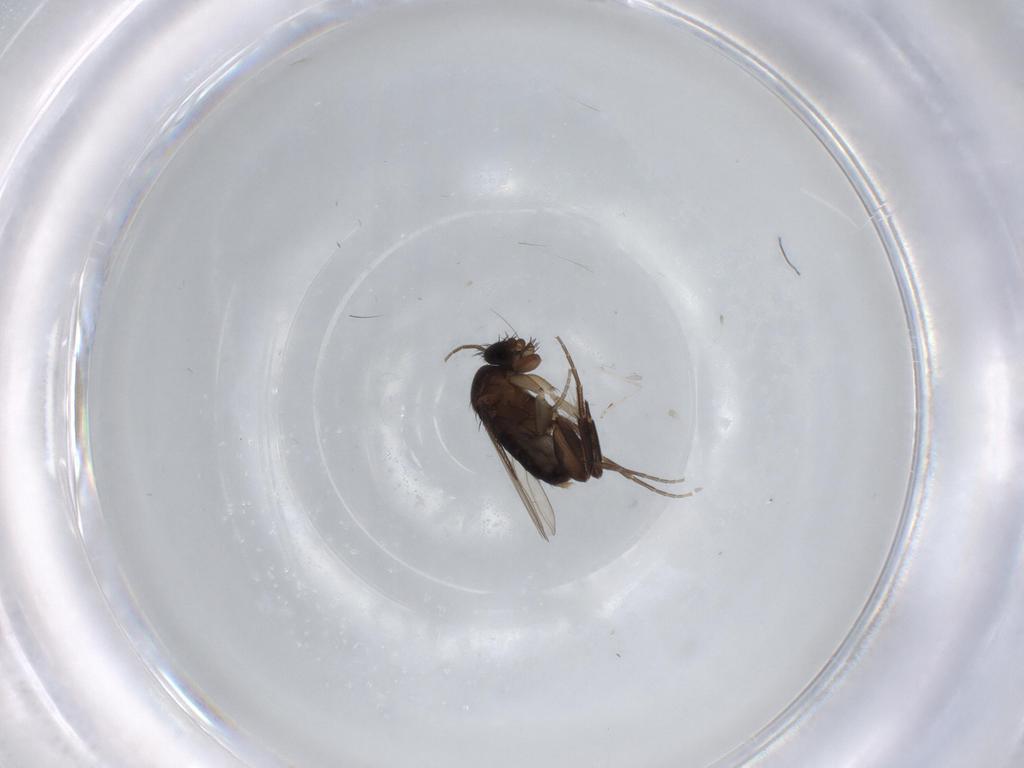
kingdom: Animalia
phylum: Arthropoda
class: Insecta
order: Diptera
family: Phoridae
